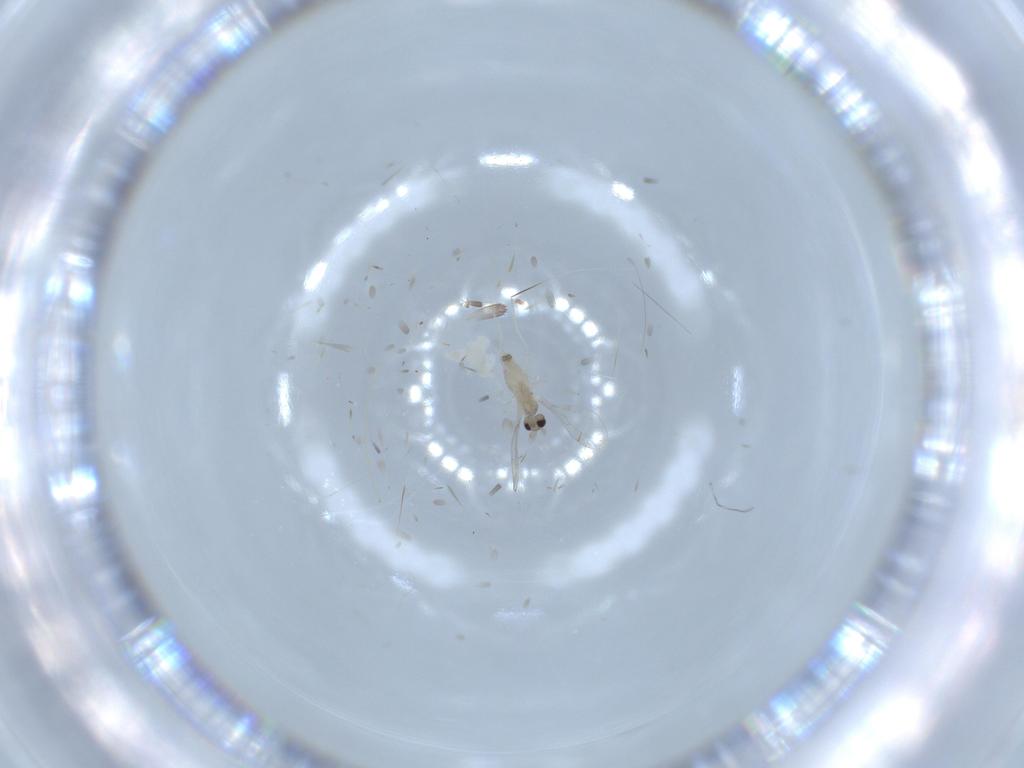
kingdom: Animalia
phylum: Arthropoda
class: Insecta
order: Diptera
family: Cecidomyiidae
